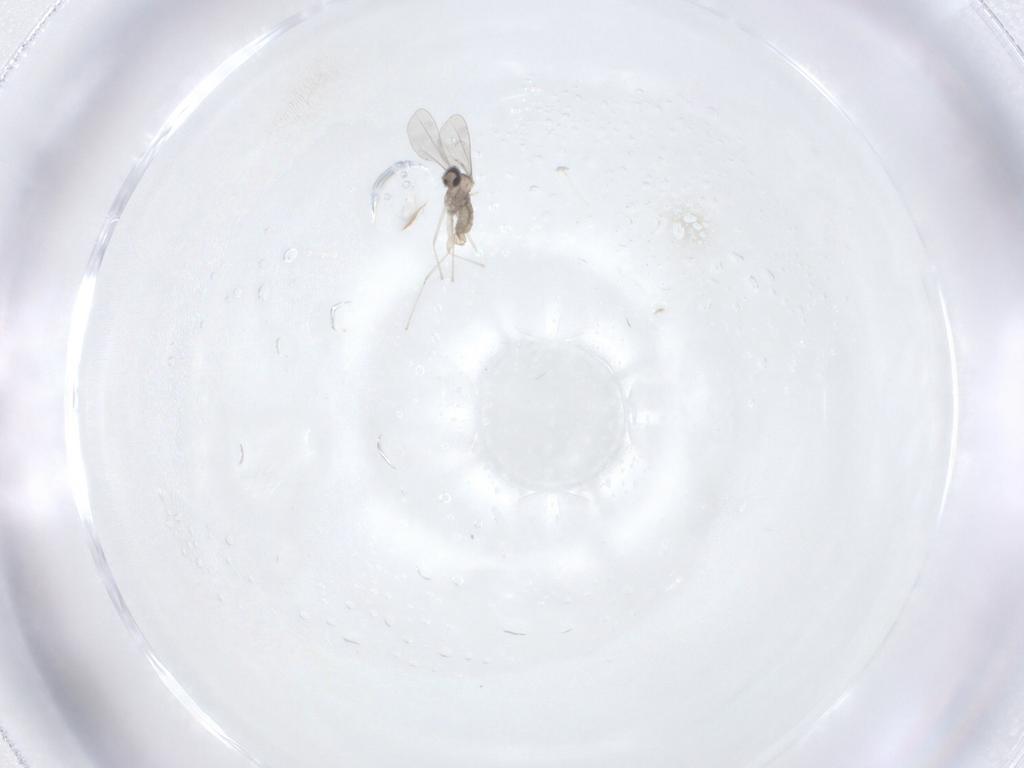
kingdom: Animalia
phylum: Arthropoda
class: Insecta
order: Diptera
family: Cecidomyiidae
